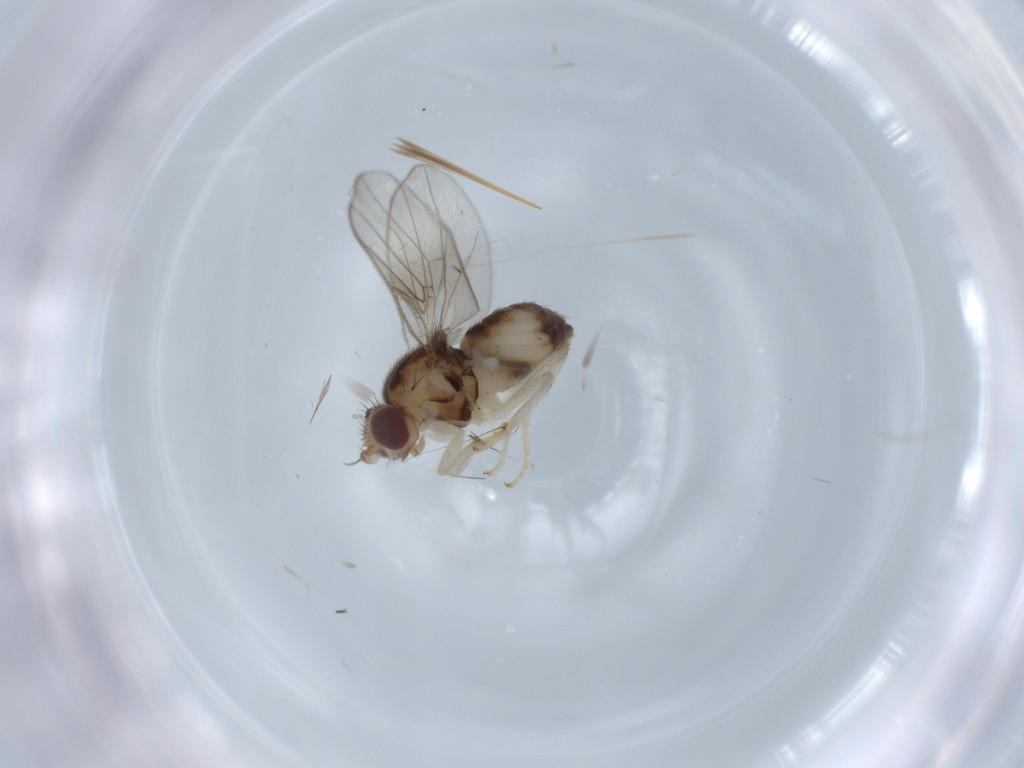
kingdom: Animalia
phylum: Arthropoda
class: Insecta
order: Diptera
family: Chloropidae
